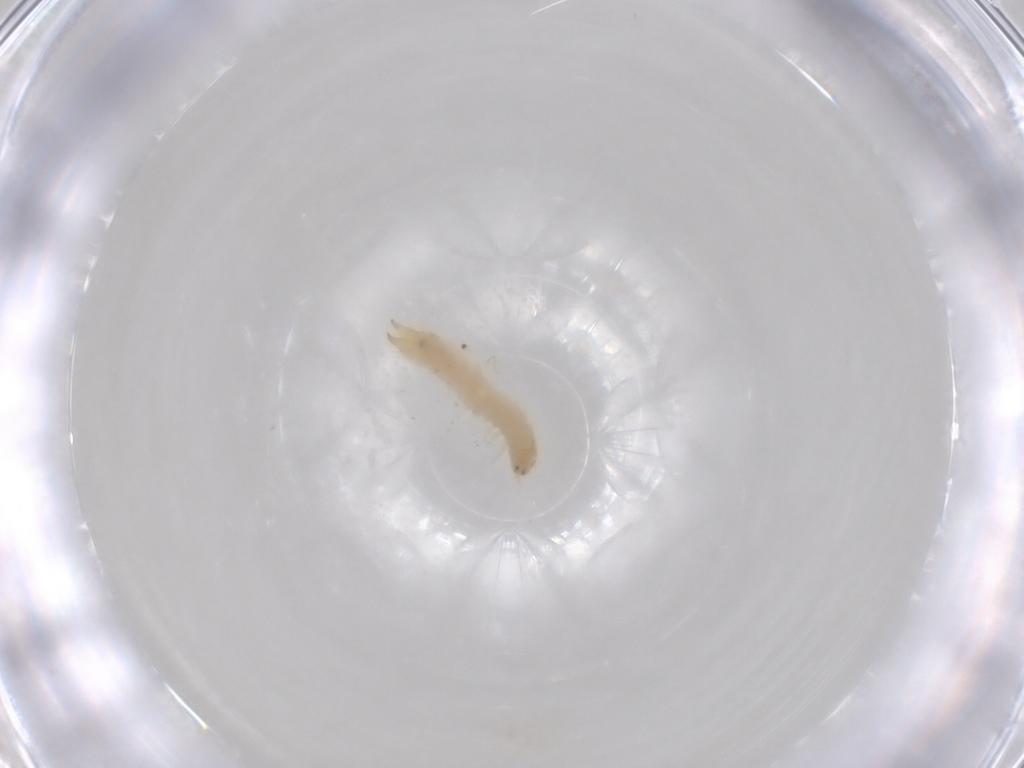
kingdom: Animalia
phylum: Arthropoda
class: Insecta
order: Coleoptera
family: Zopheridae
